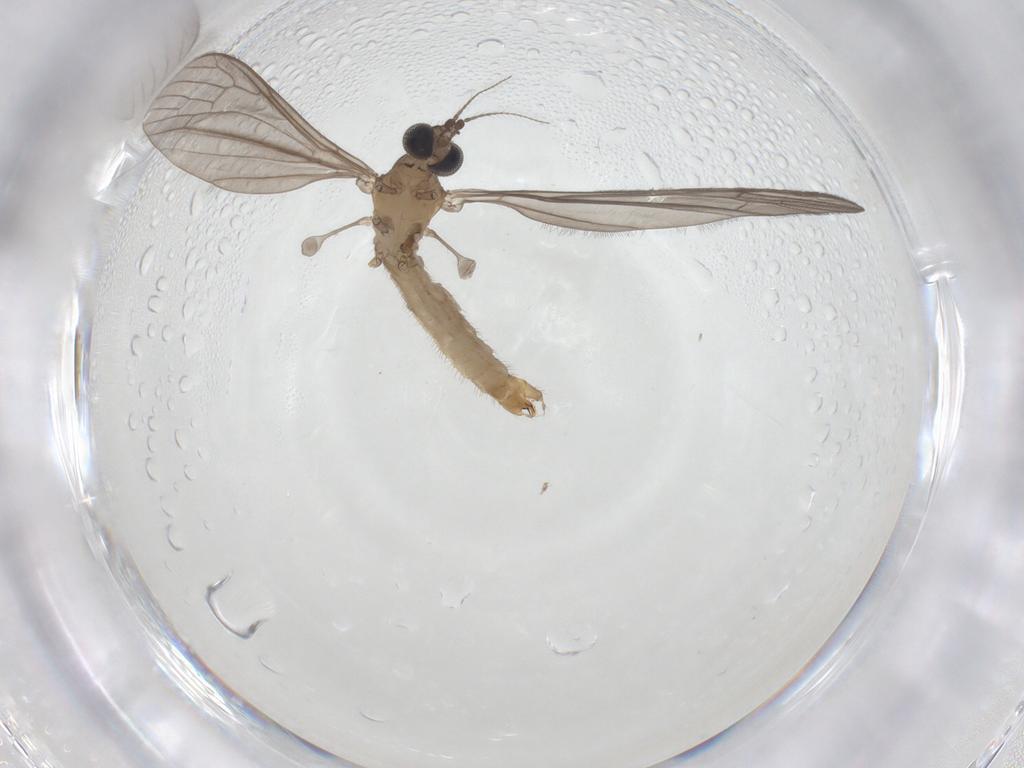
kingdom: Animalia
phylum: Arthropoda
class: Insecta
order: Diptera
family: Limoniidae
